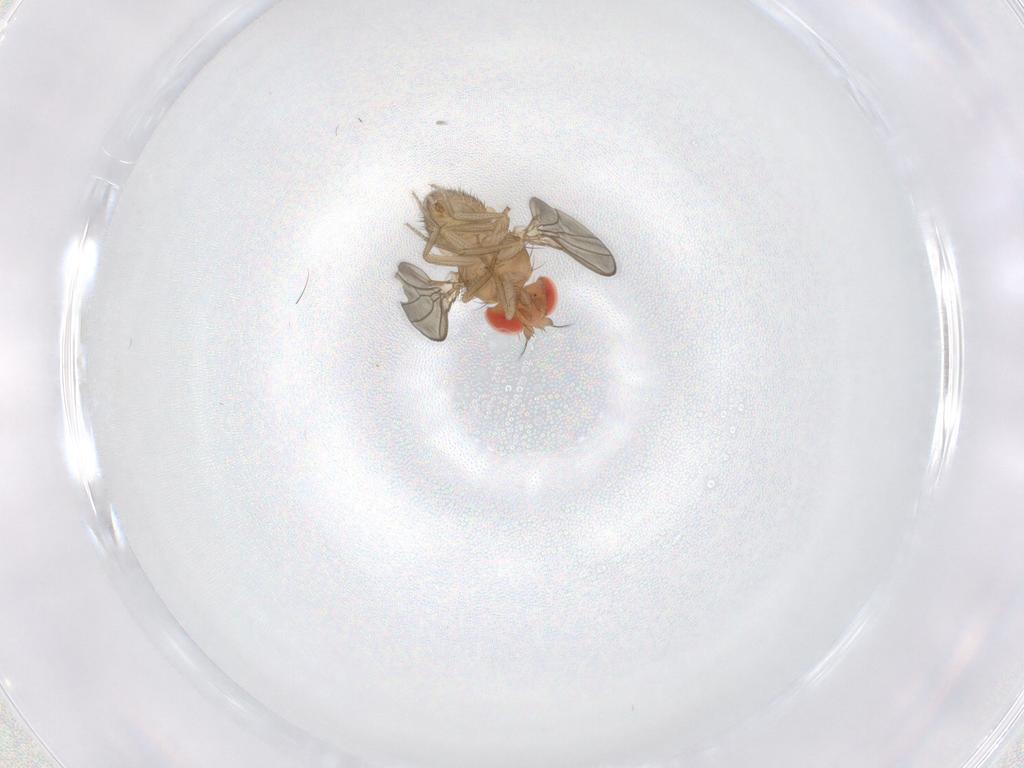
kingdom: Animalia
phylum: Arthropoda
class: Insecta
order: Diptera
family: Drosophilidae
